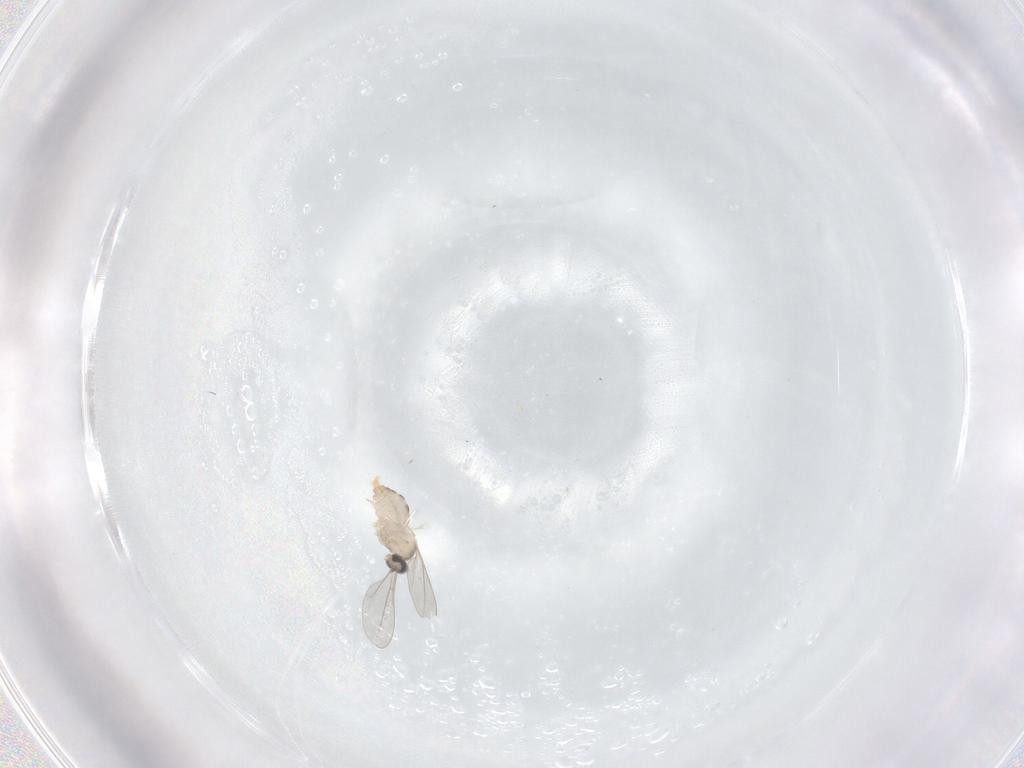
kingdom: Animalia
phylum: Arthropoda
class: Insecta
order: Diptera
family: Cecidomyiidae
